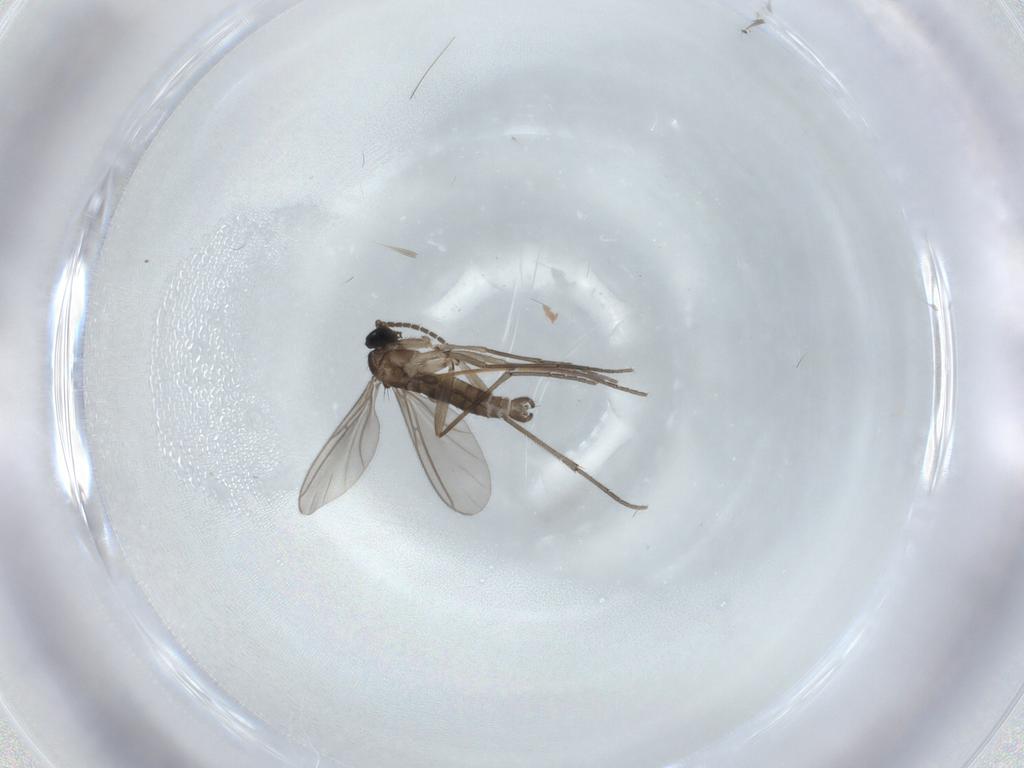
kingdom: Animalia
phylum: Arthropoda
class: Insecta
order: Diptera
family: Sciaridae
